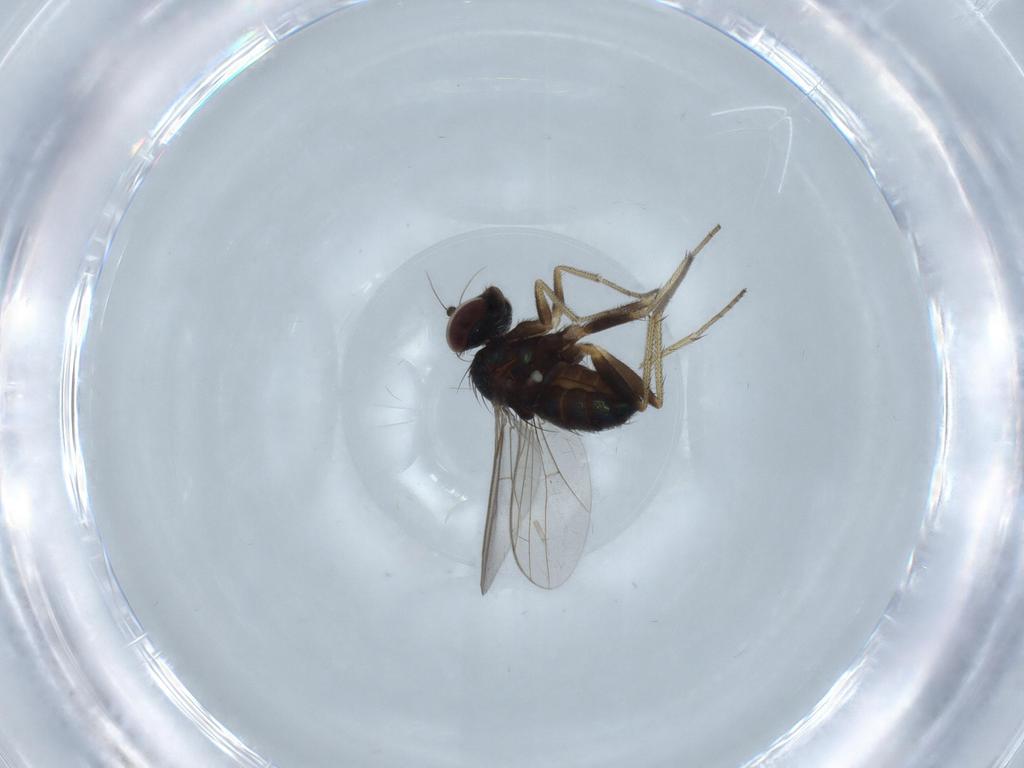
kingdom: Animalia
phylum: Arthropoda
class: Insecta
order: Diptera
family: Dolichopodidae
